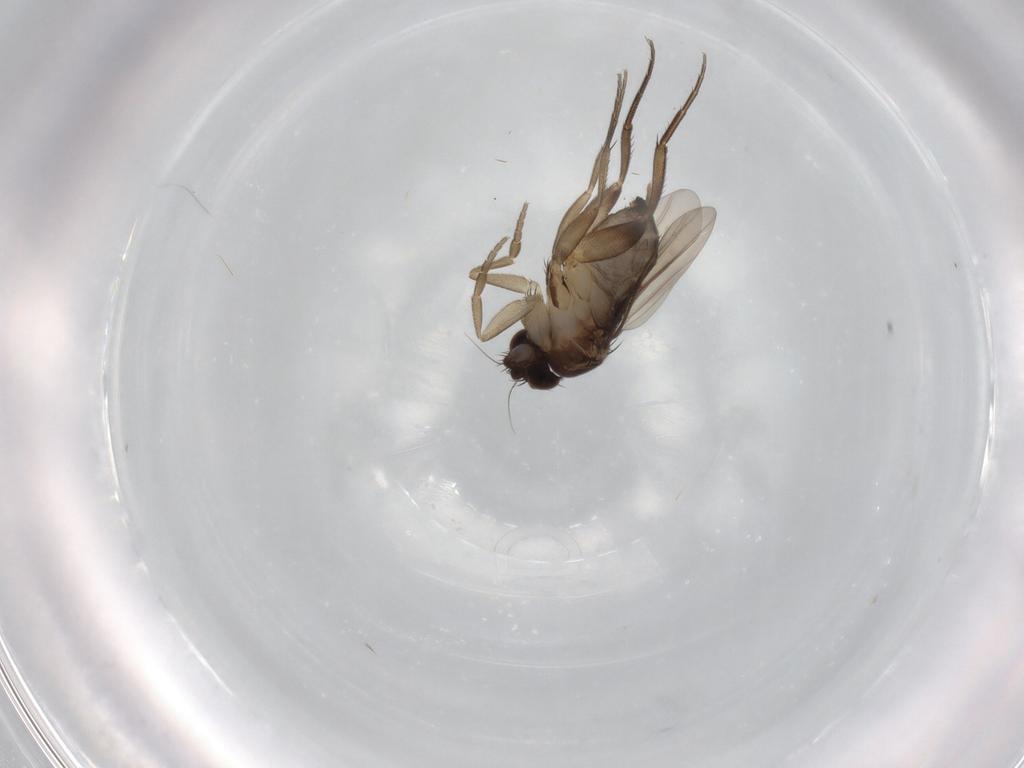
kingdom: Animalia
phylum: Arthropoda
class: Insecta
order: Diptera
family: Phoridae
